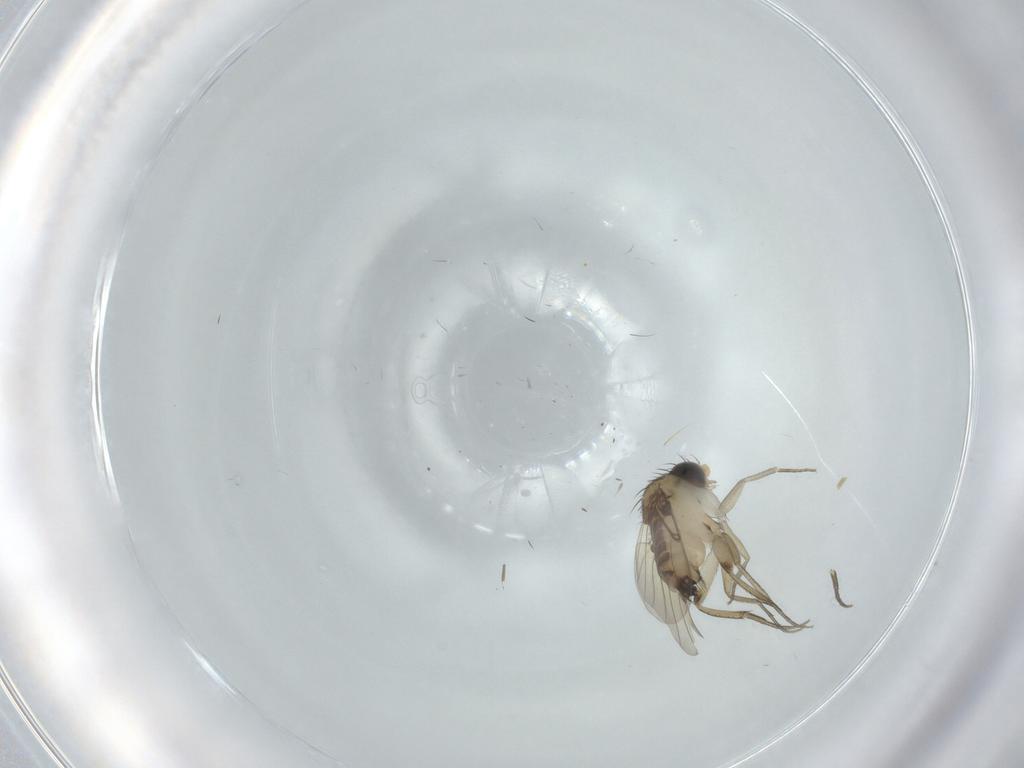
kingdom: Animalia
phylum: Arthropoda
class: Insecta
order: Diptera
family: Phoridae
